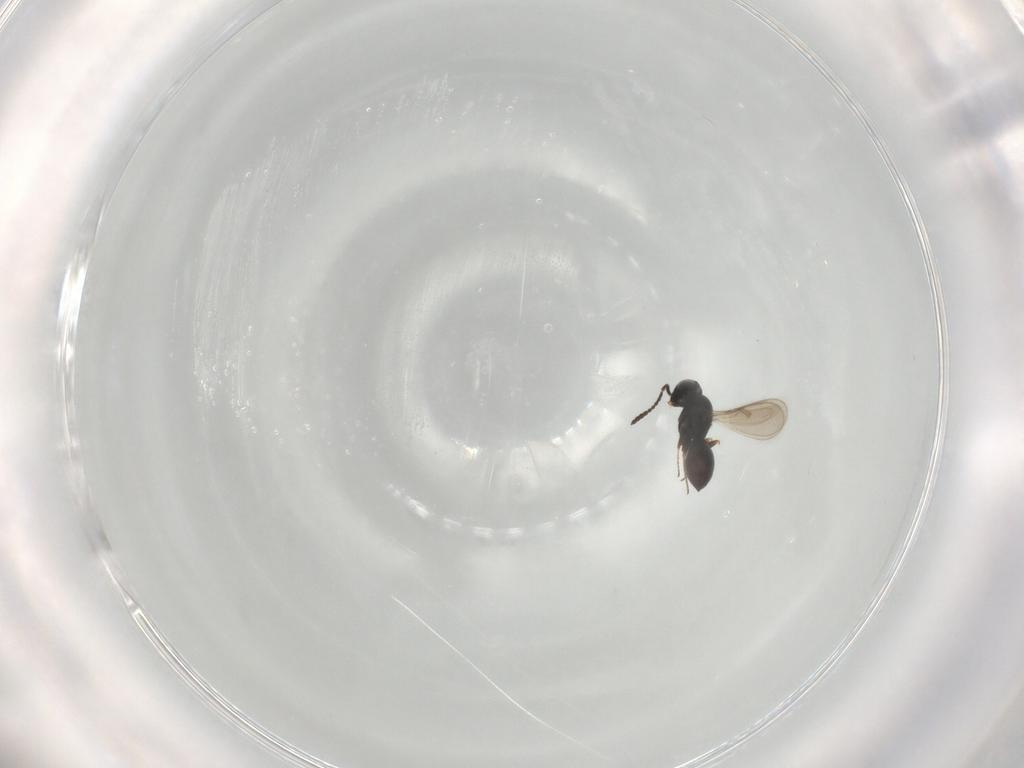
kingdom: Animalia
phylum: Arthropoda
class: Insecta
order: Hymenoptera
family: Scelionidae
